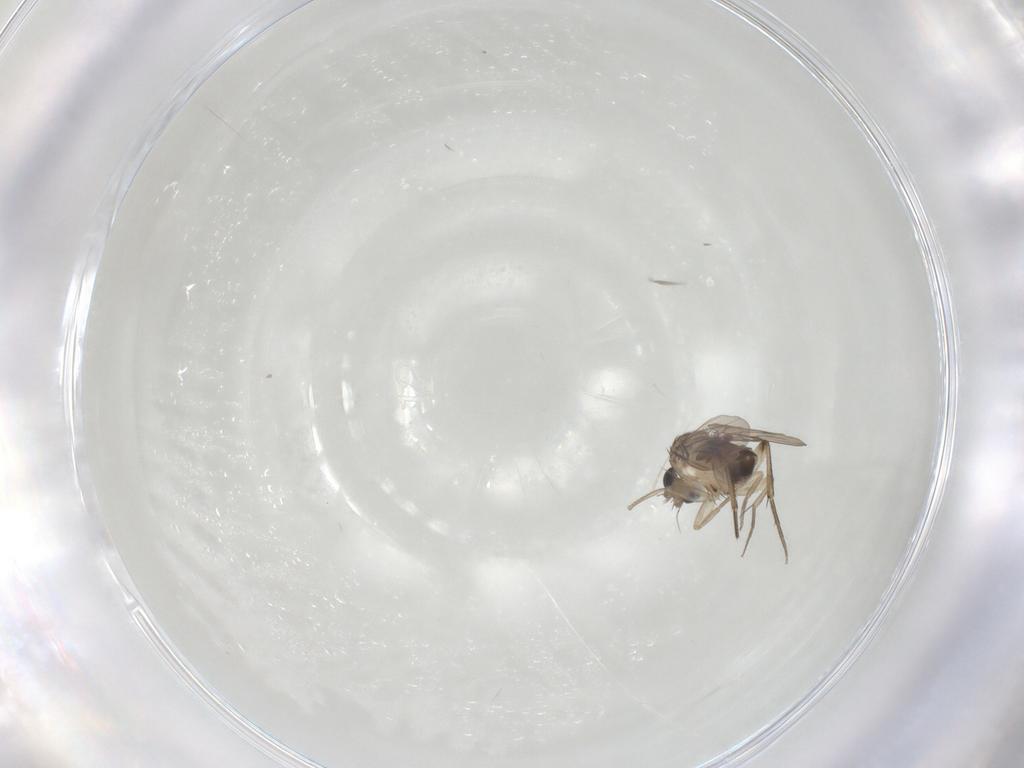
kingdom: Animalia
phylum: Arthropoda
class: Insecta
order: Diptera
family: Phoridae
